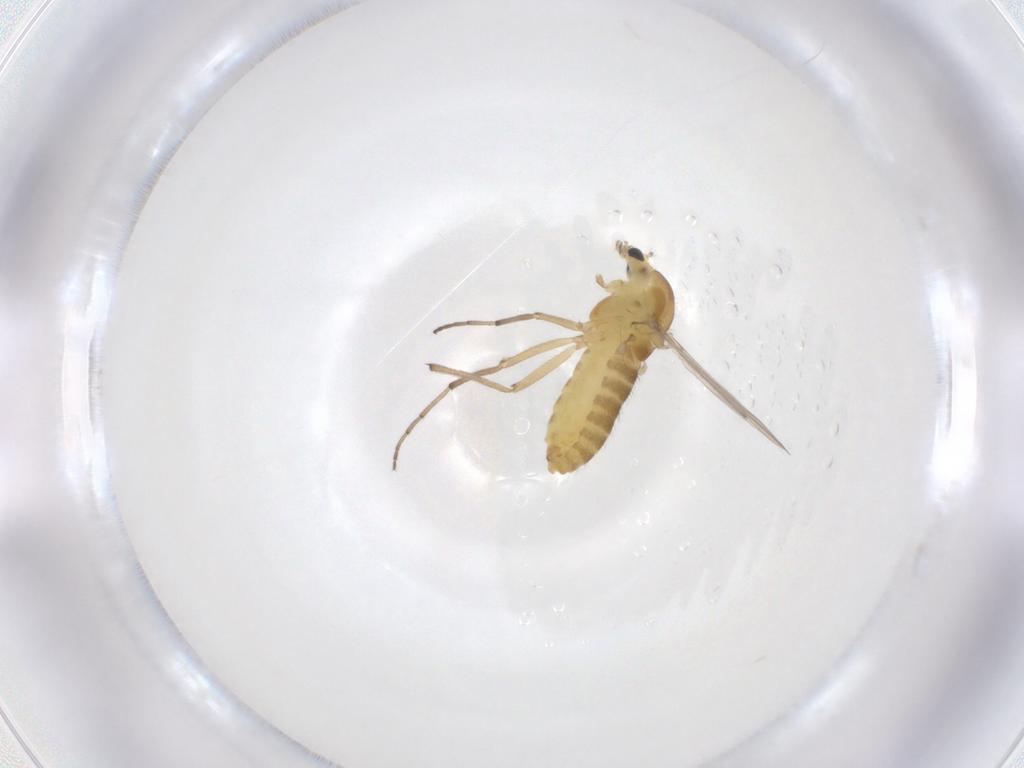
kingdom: Animalia
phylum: Arthropoda
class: Insecta
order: Diptera
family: Chironomidae
